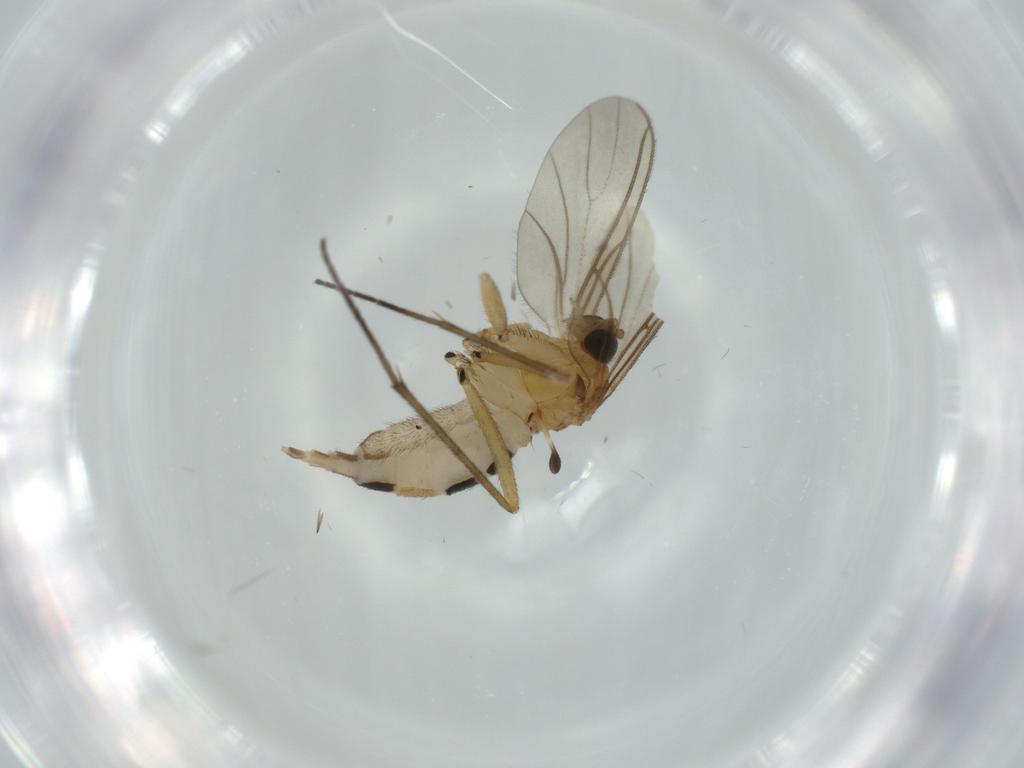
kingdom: Animalia
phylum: Arthropoda
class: Insecta
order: Diptera
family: Sciaridae
